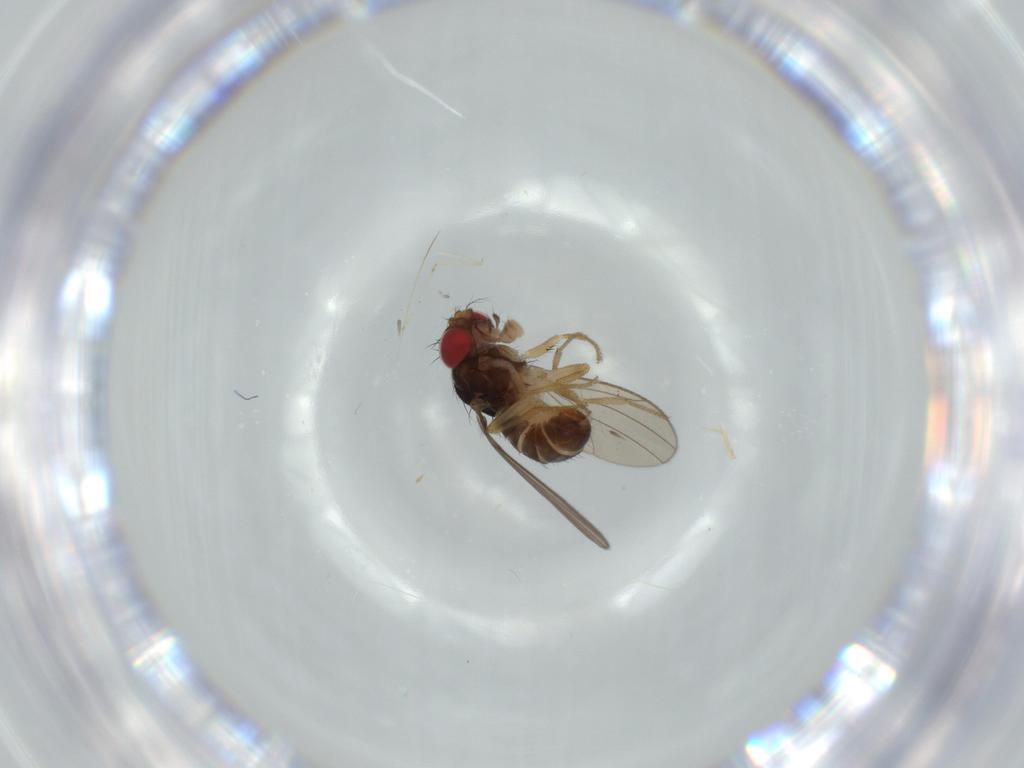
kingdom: Animalia
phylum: Arthropoda
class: Insecta
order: Diptera
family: Drosophilidae
